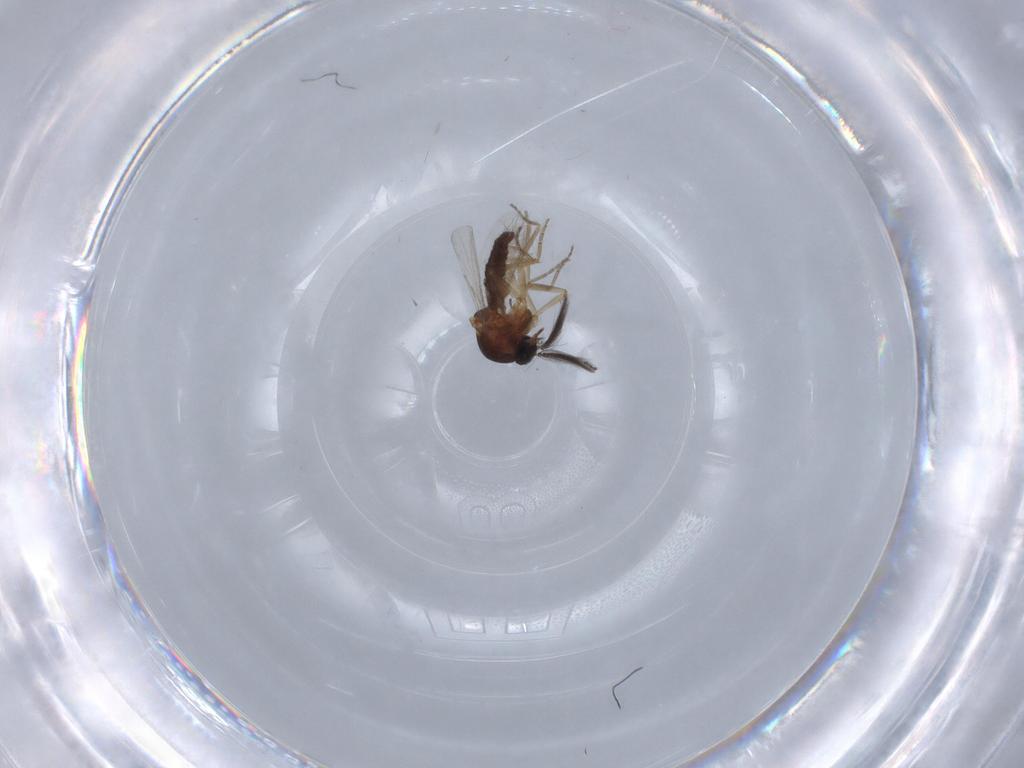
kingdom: Animalia
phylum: Arthropoda
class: Insecta
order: Diptera
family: Ceratopogonidae
